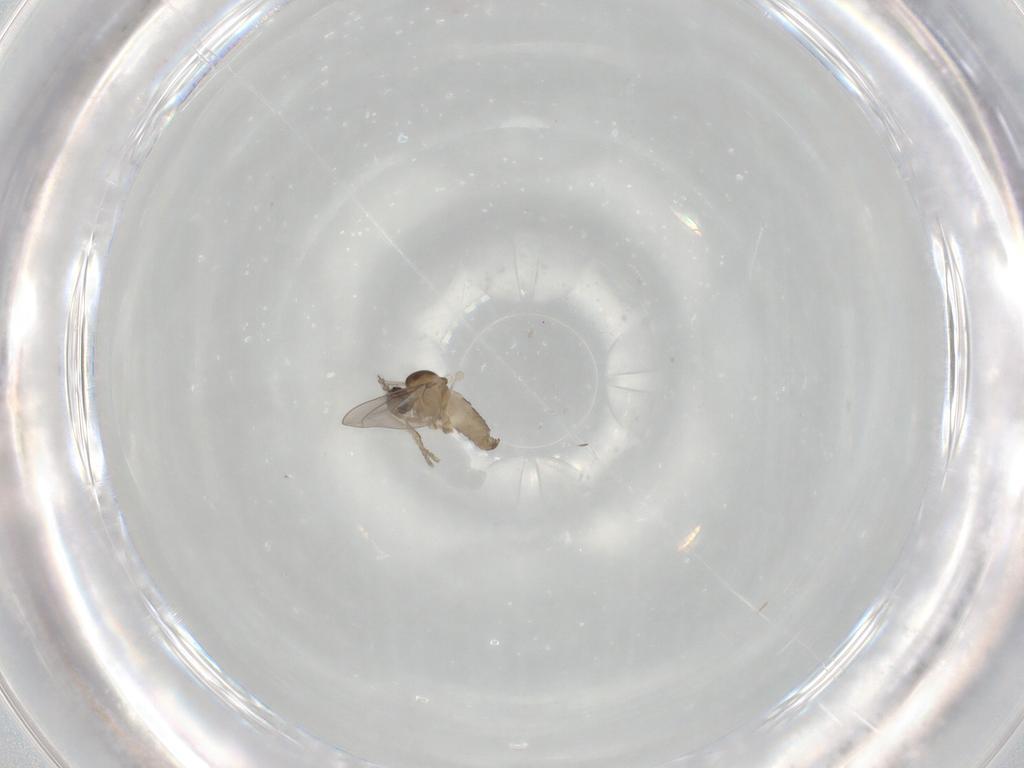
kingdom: Animalia
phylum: Arthropoda
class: Insecta
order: Diptera
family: Cecidomyiidae
